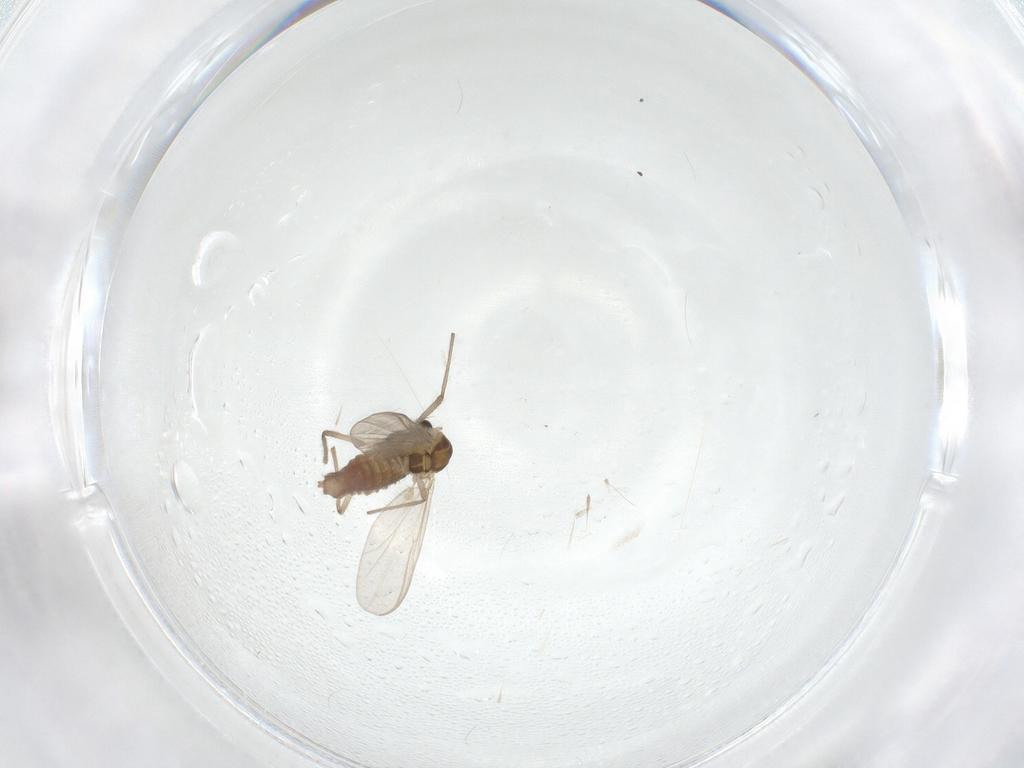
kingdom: Animalia
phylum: Arthropoda
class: Insecta
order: Diptera
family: Chironomidae
